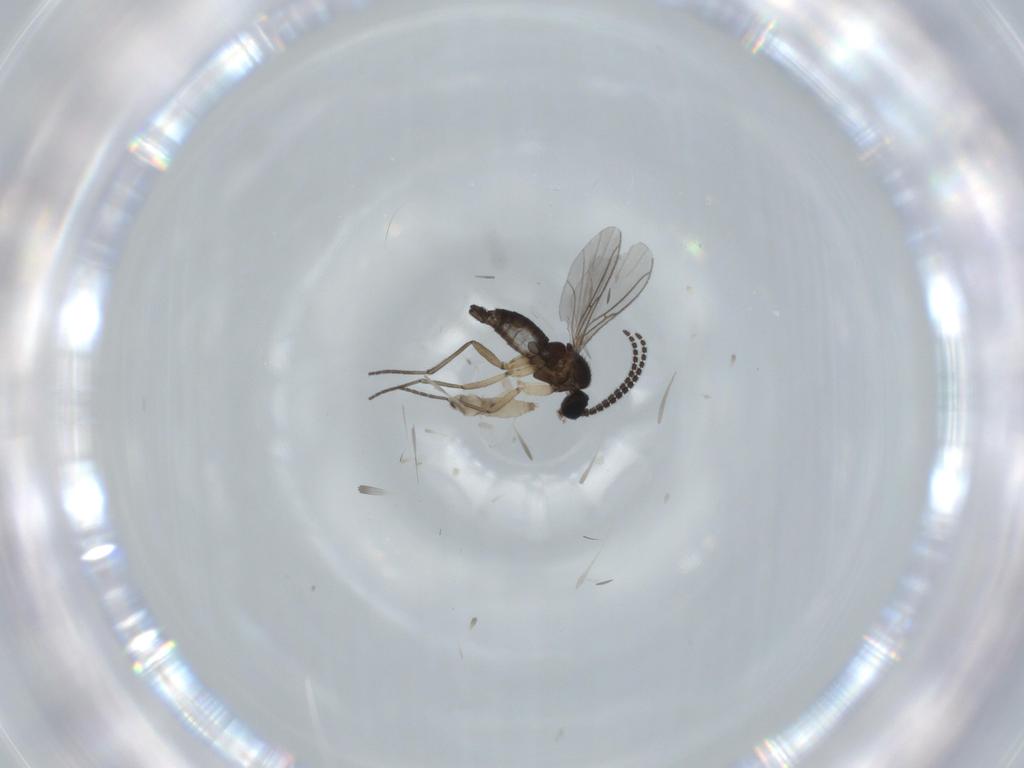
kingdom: Animalia
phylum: Arthropoda
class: Insecta
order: Diptera
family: Sciaridae
